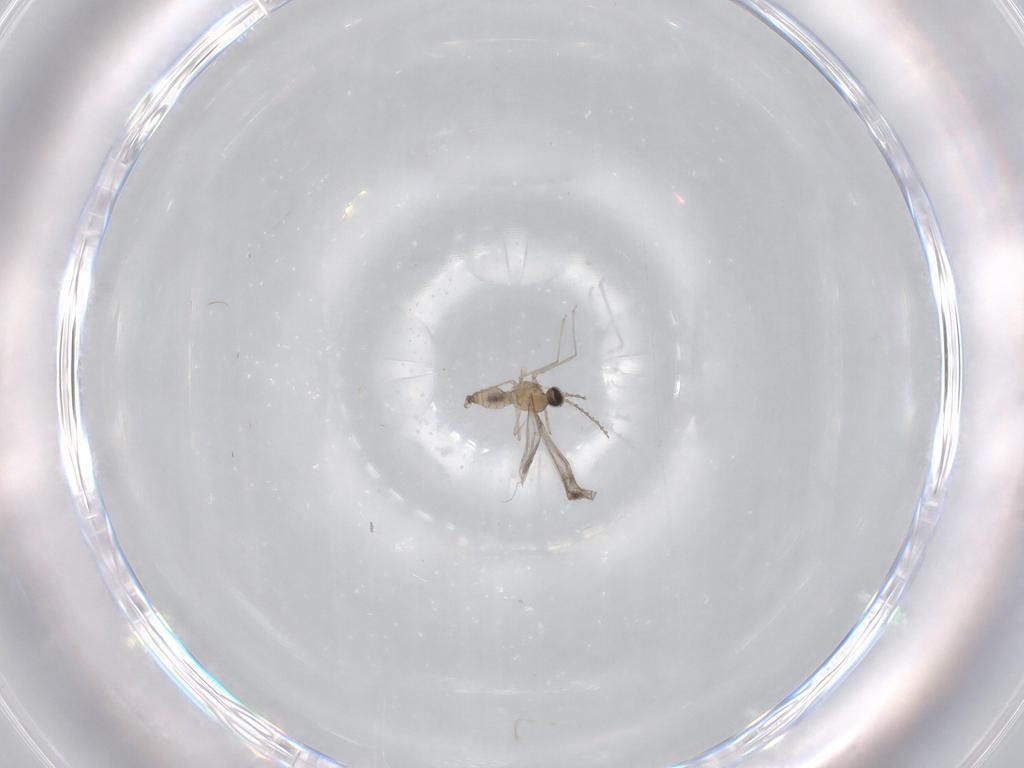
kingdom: Animalia
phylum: Arthropoda
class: Insecta
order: Diptera
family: Cecidomyiidae
